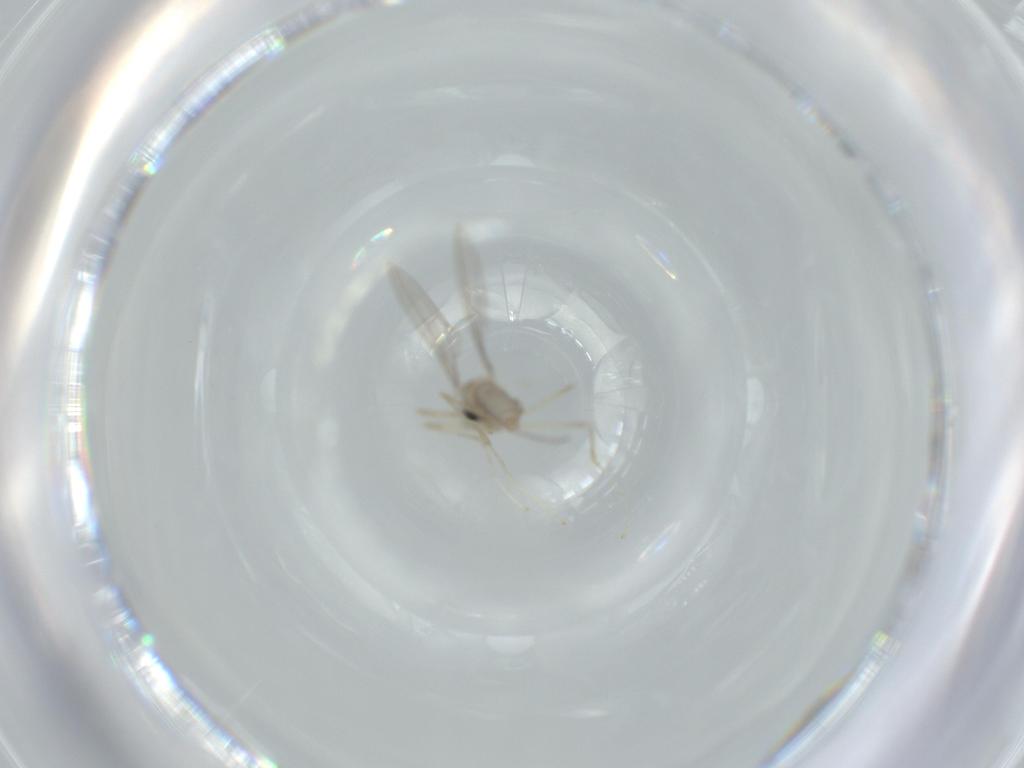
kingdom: Animalia
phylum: Arthropoda
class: Insecta
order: Diptera
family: Cecidomyiidae
